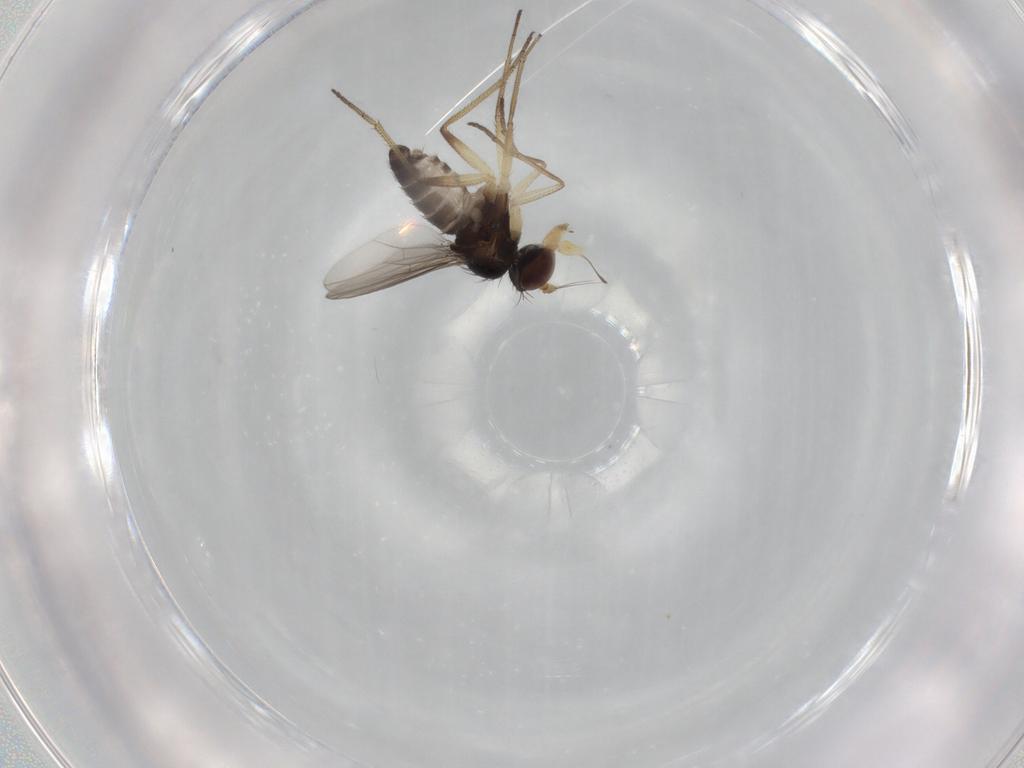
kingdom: Animalia
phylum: Arthropoda
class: Insecta
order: Diptera
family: Dolichopodidae
